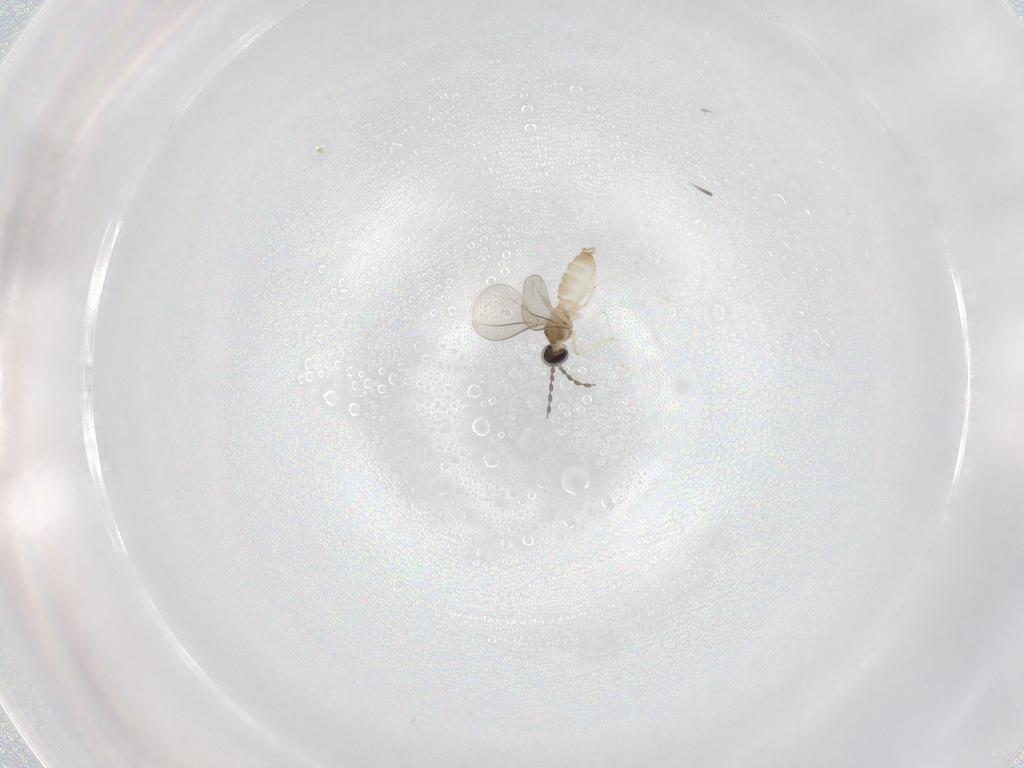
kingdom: Animalia
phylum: Arthropoda
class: Insecta
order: Diptera
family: Cecidomyiidae
